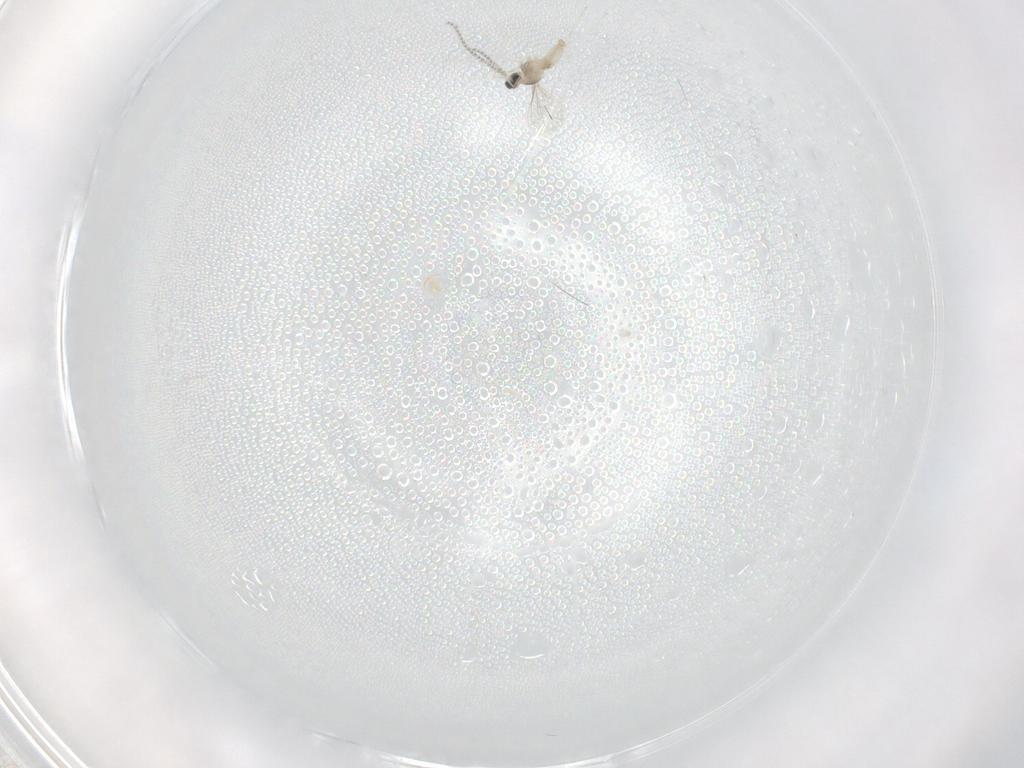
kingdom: Animalia
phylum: Arthropoda
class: Insecta
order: Diptera
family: Cecidomyiidae
